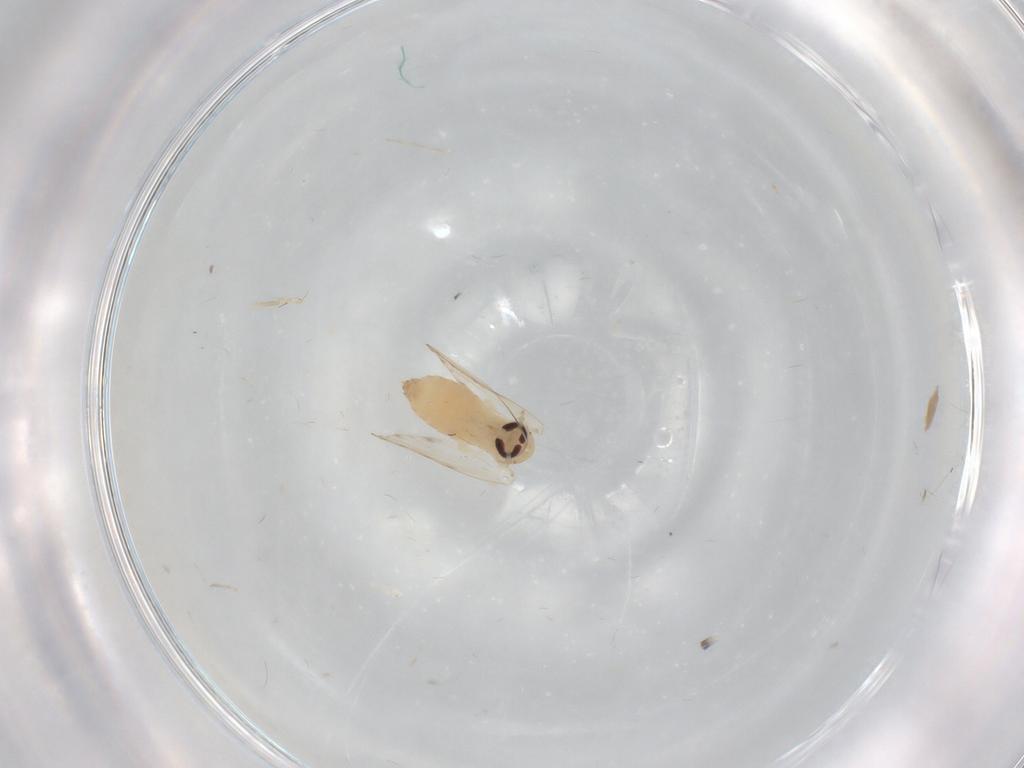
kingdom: Animalia
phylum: Arthropoda
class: Insecta
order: Diptera
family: Psychodidae
